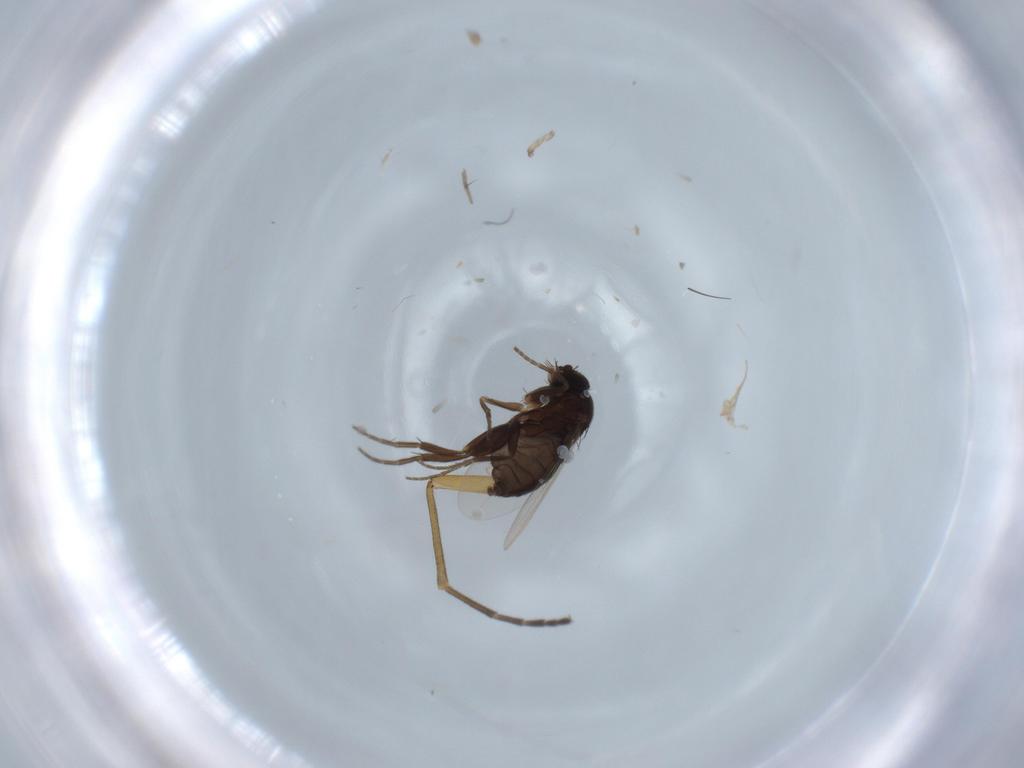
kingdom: Animalia
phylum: Arthropoda
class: Insecta
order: Diptera
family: Phoridae
